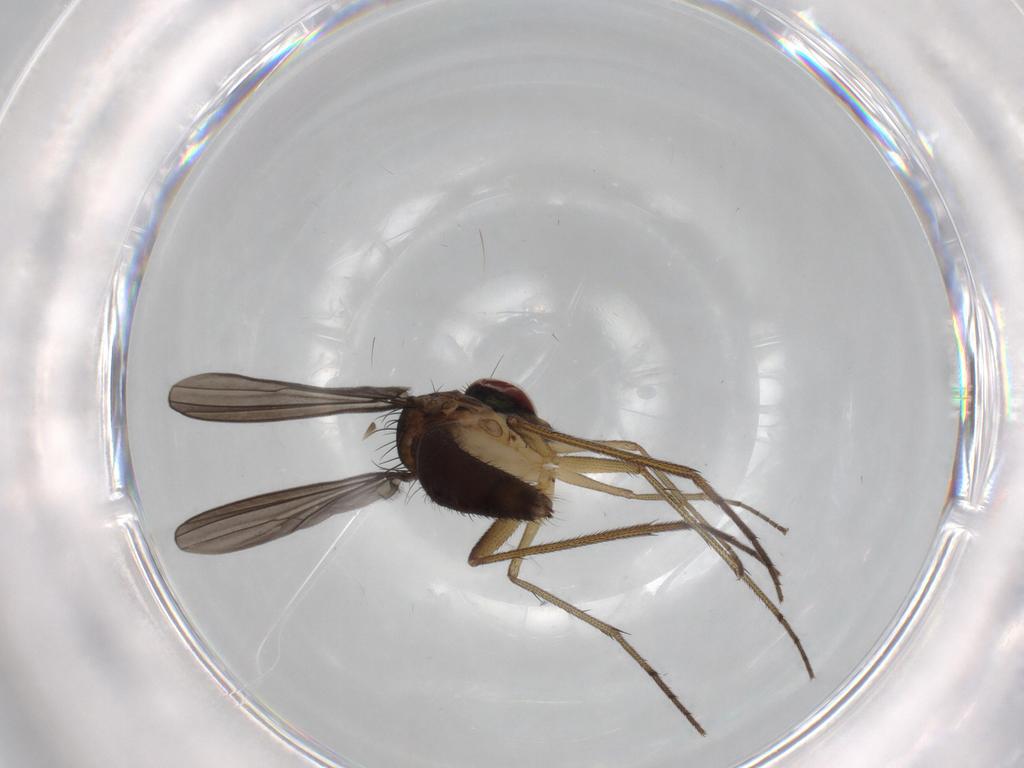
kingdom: Animalia
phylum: Arthropoda
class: Insecta
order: Diptera
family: Dolichopodidae
